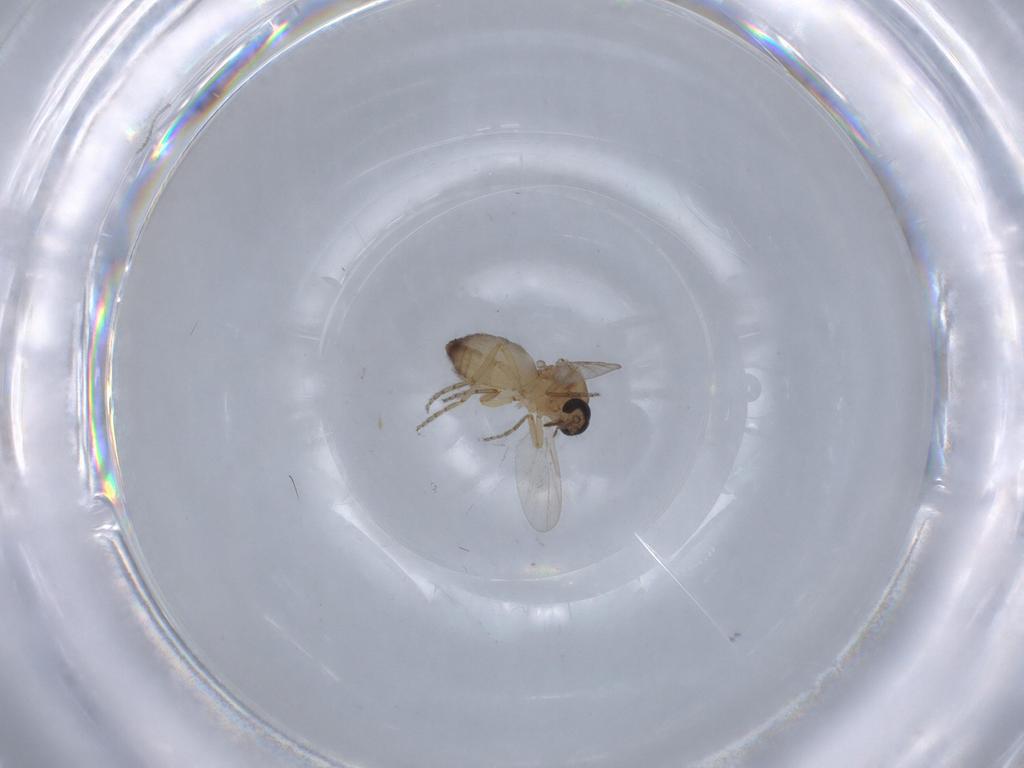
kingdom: Animalia
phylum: Arthropoda
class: Insecta
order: Diptera
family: Ceratopogonidae
